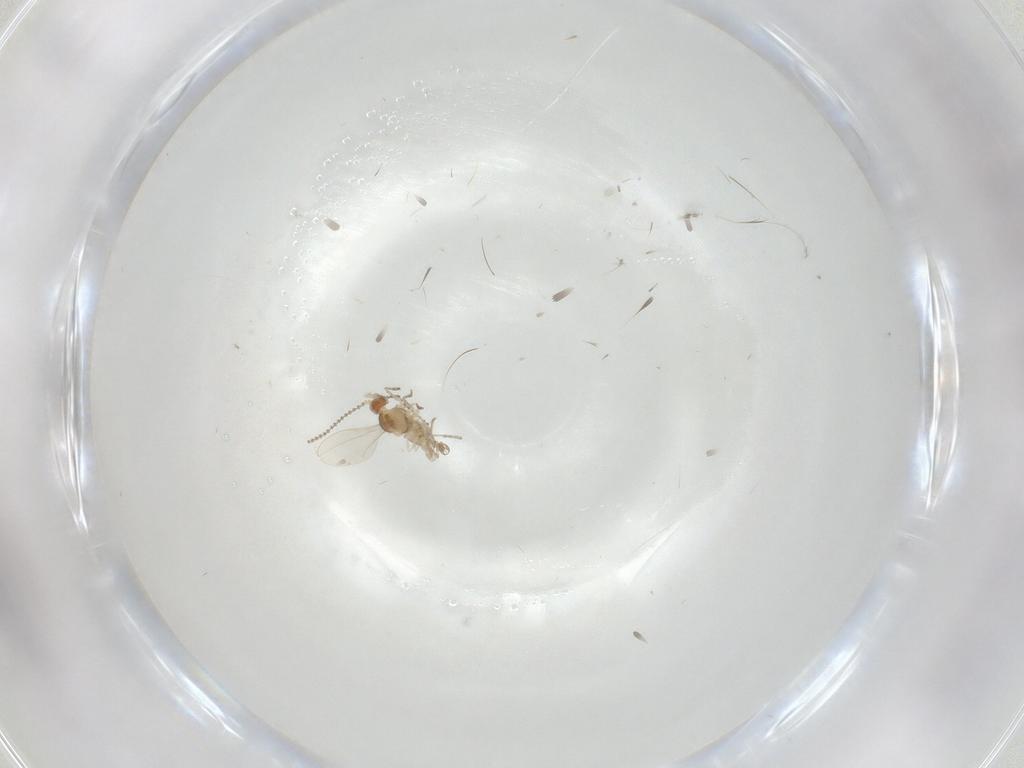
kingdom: Animalia
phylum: Arthropoda
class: Insecta
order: Diptera
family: Cecidomyiidae
